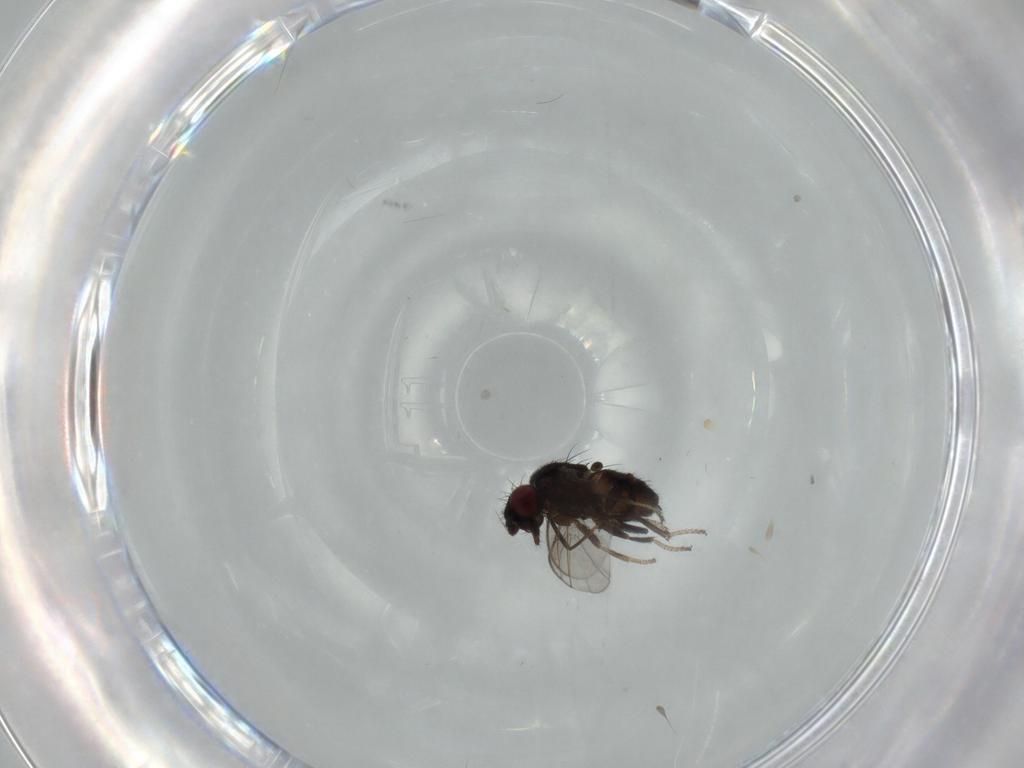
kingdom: Animalia
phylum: Arthropoda
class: Insecta
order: Diptera
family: Milichiidae
